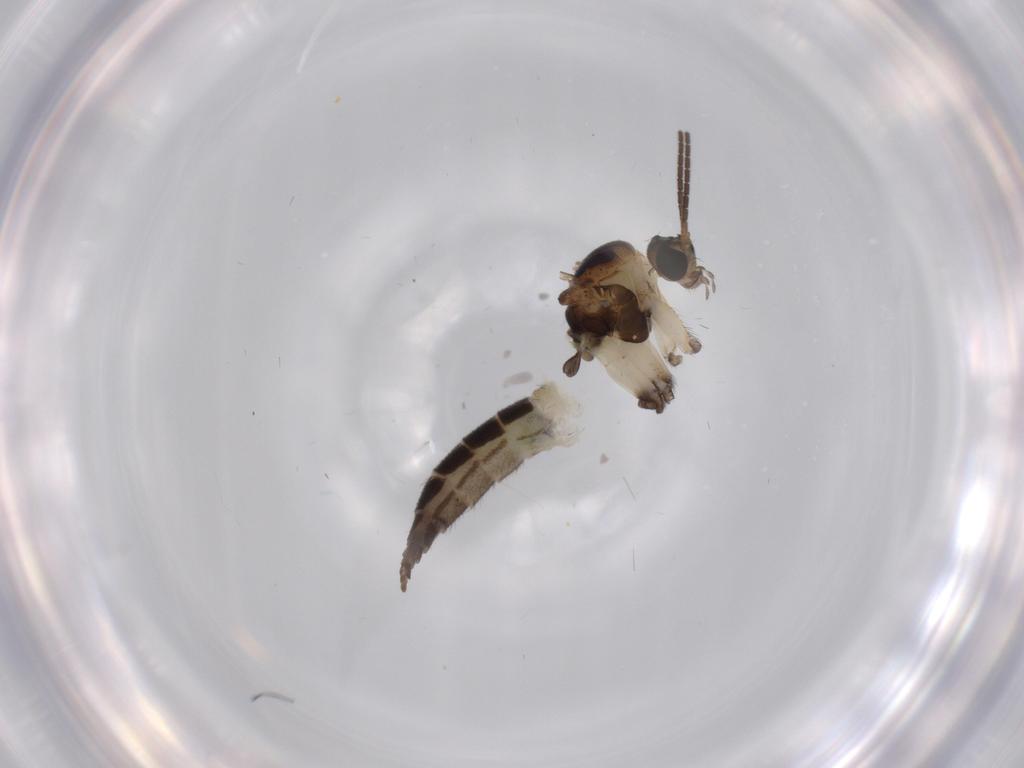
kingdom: Animalia
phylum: Arthropoda
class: Insecta
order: Diptera
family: Sciaridae
